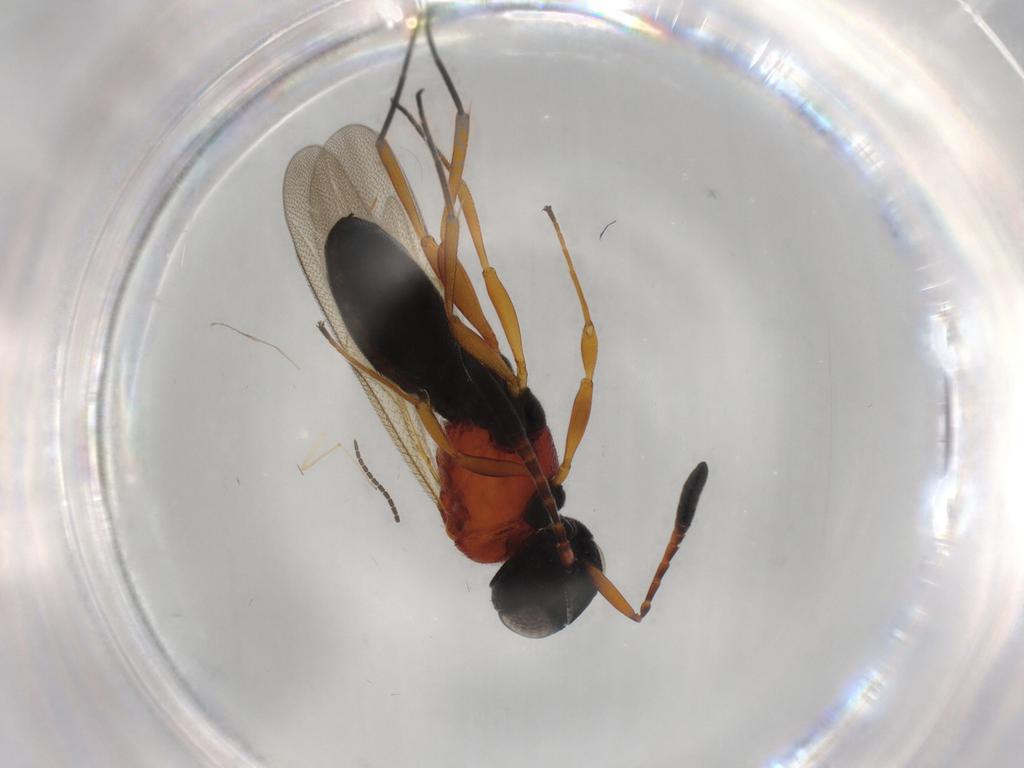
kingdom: Animalia
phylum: Arthropoda
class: Insecta
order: Hymenoptera
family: Scelionidae
